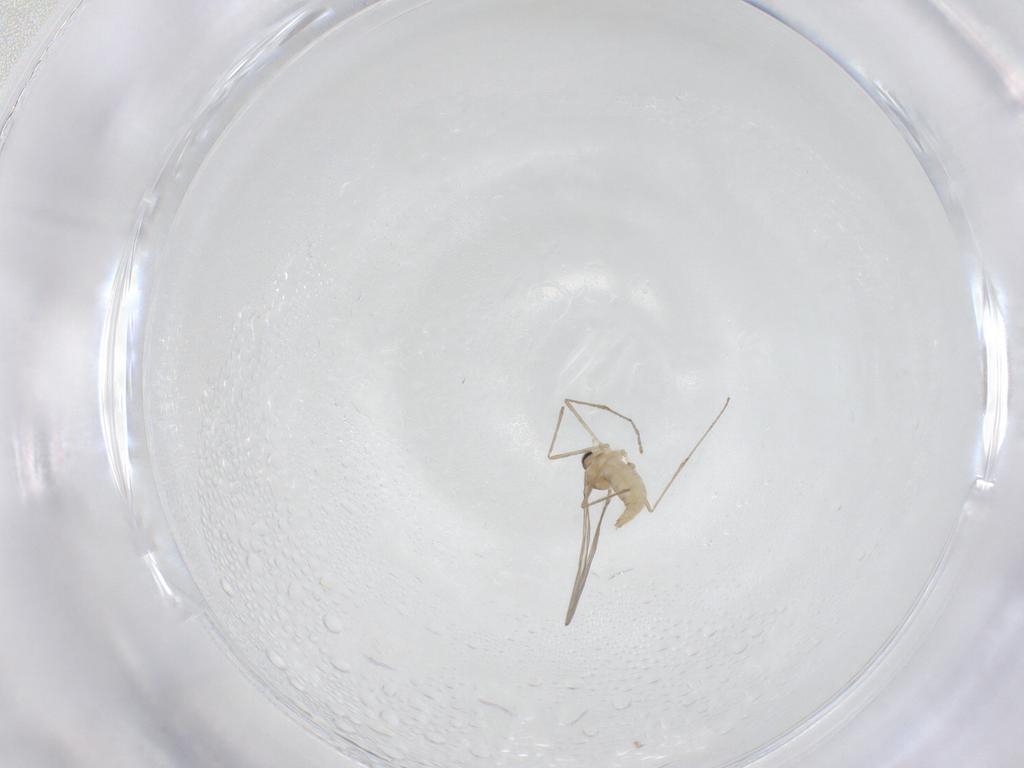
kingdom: Animalia
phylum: Arthropoda
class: Insecta
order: Diptera
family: Cecidomyiidae
